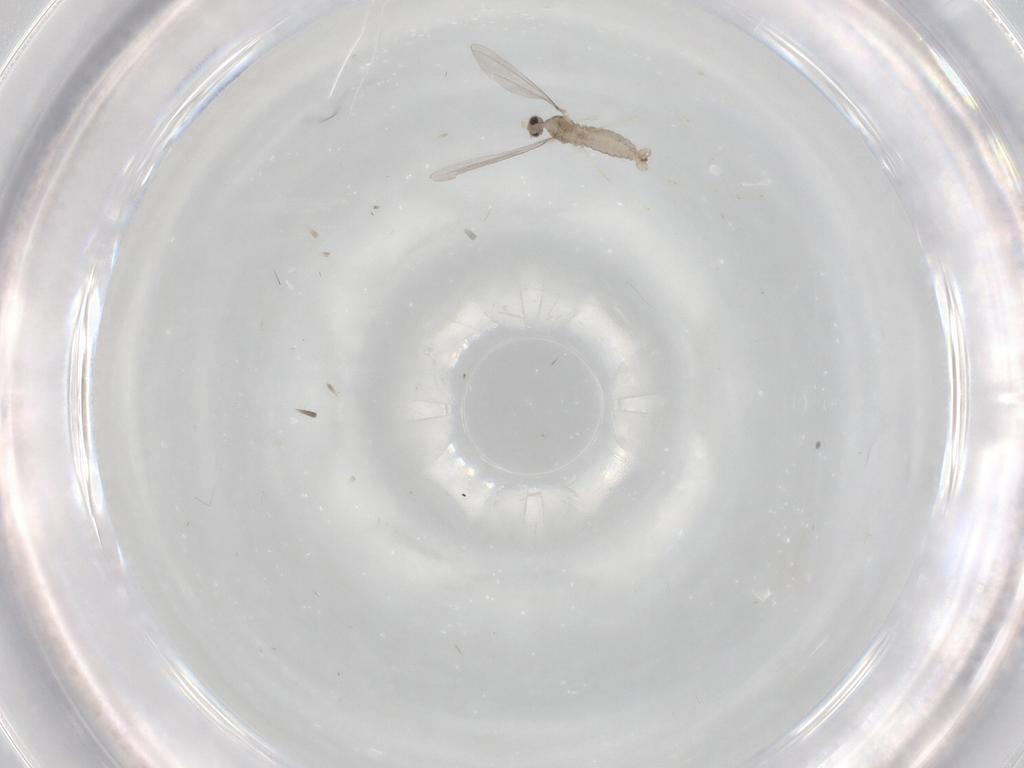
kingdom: Animalia
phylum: Arthropoda
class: Insecta
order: Diptera
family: Cecidomyiidae
